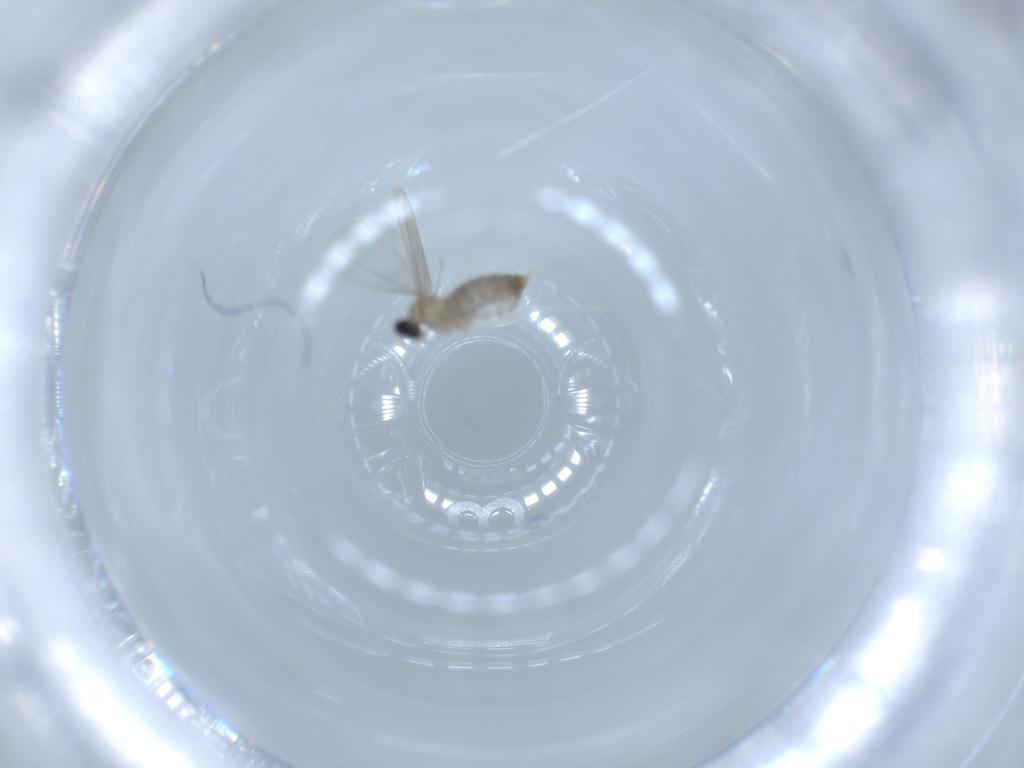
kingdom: Animalia
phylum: Arthropoda
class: Insecta
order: Diptera
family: Cecidomyiidae
